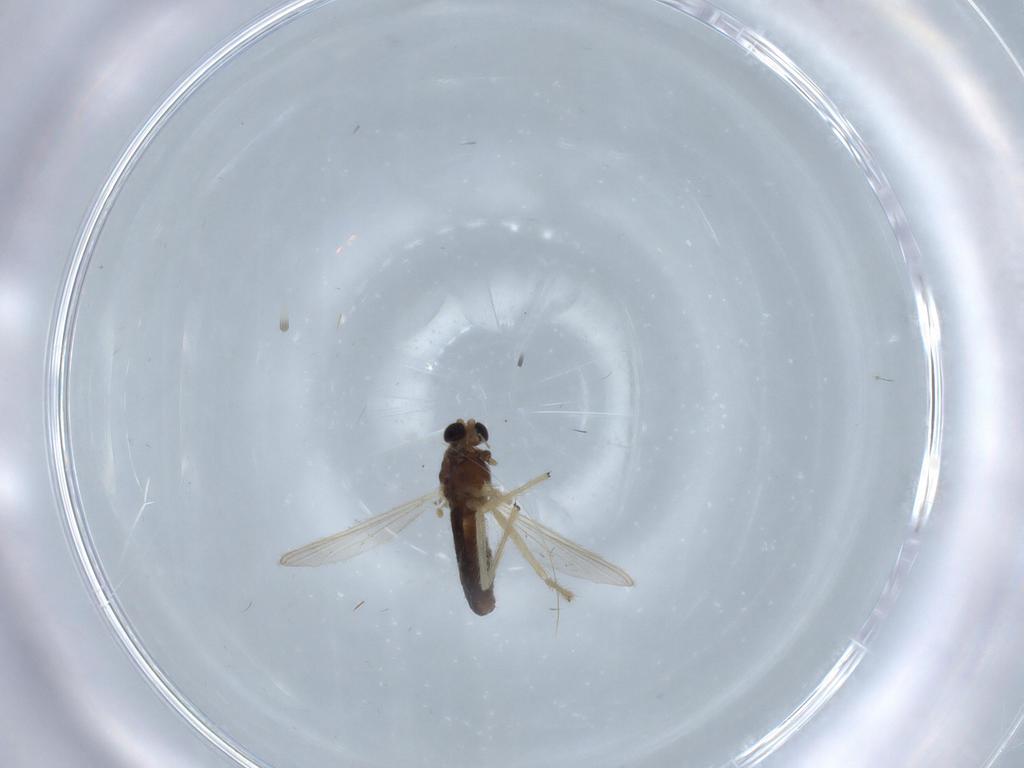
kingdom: Animalia
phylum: Arthropoda
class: Insecta
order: Diptera
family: Chironomidae
